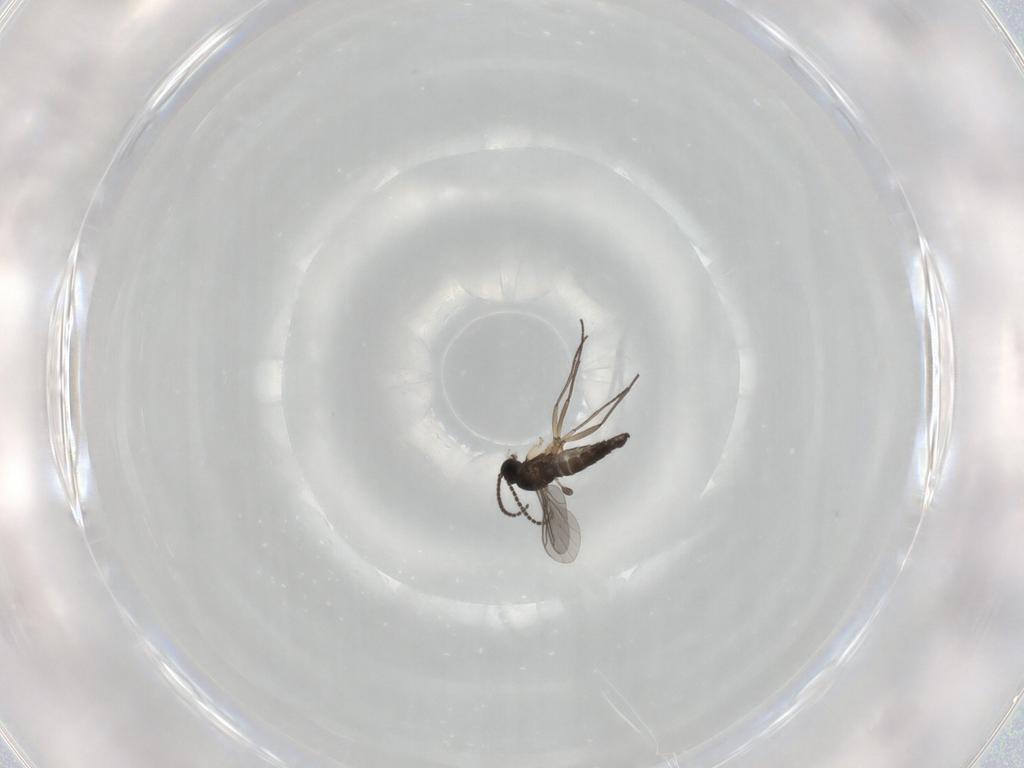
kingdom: Animalia
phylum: Arthropoda
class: Insecta
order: Diptera
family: Sciaridae
